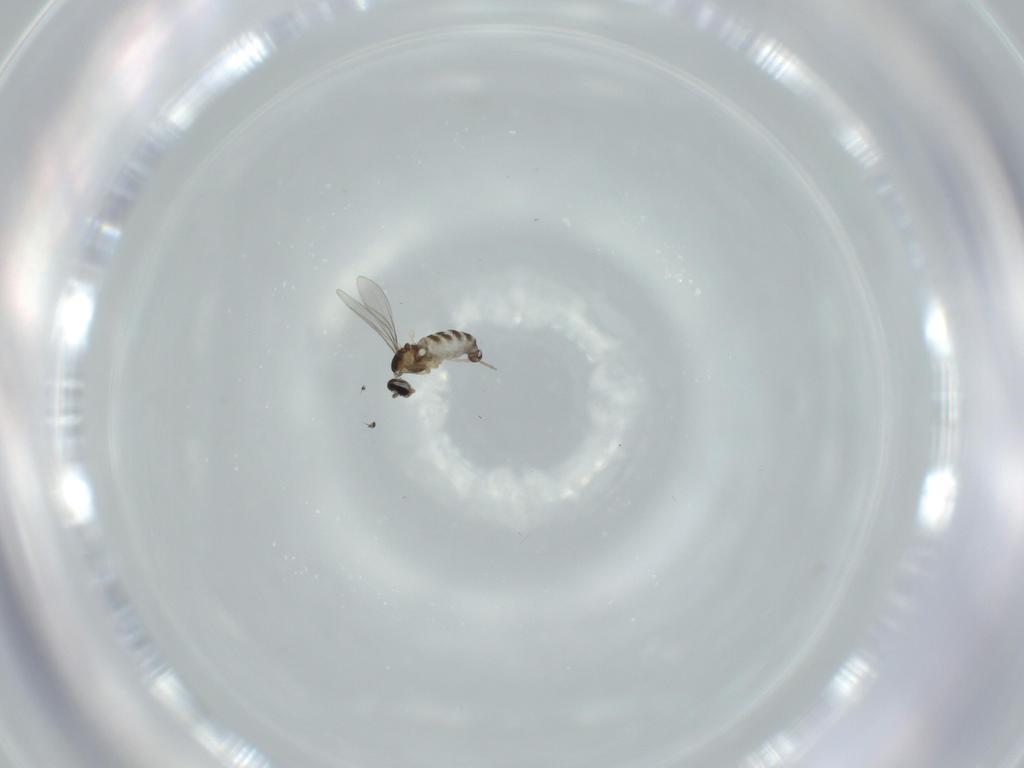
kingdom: Animalia
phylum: Arthropoda
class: Insecta
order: Diptera
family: Cecidomyiidae
